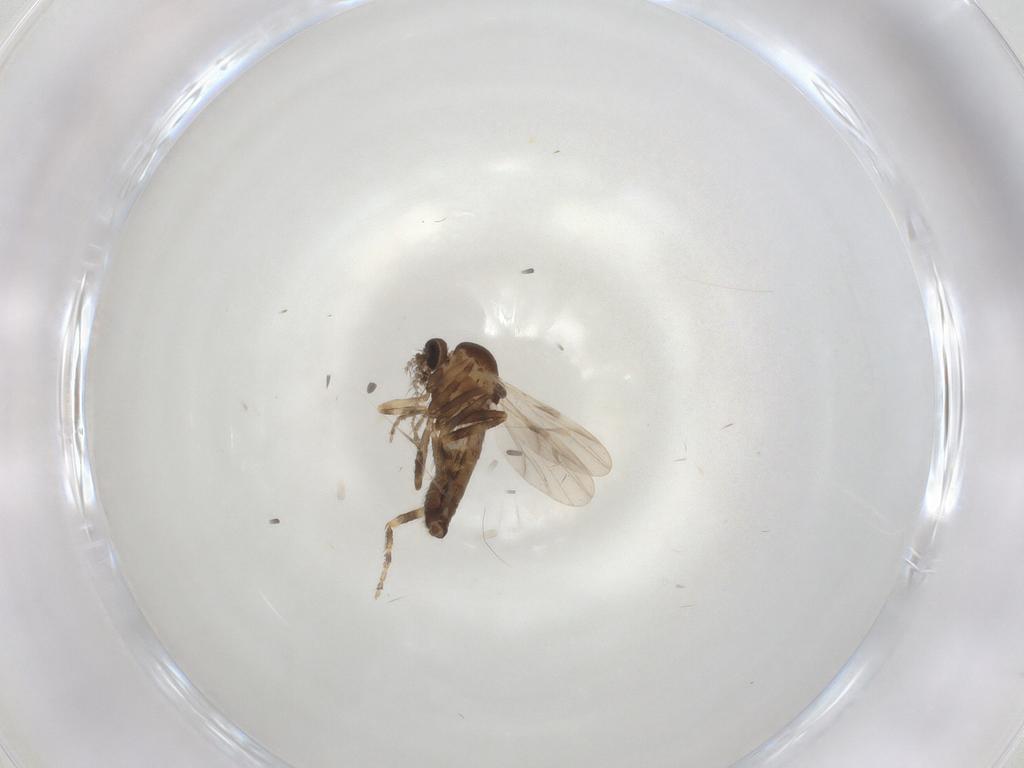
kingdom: Animalia
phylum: Arthropoda
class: Insecta
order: Diptera
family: Ceratopogonidae
